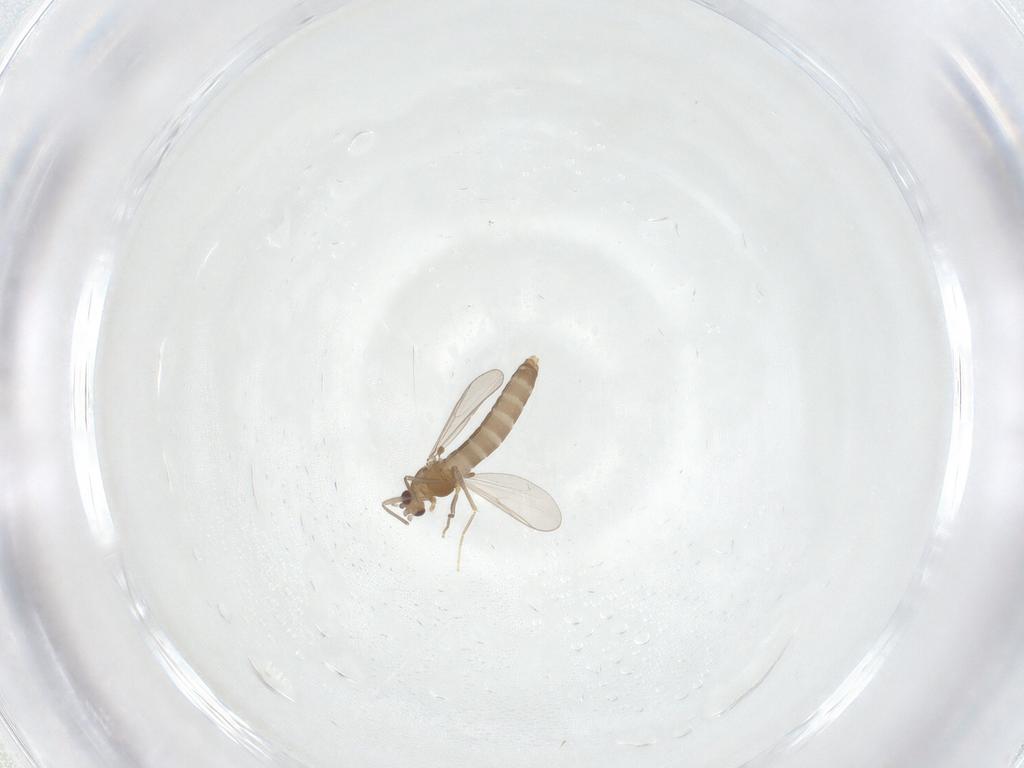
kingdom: Animalia
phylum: Arthropoda
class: Insecta
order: Diptera
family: Chironomidae
